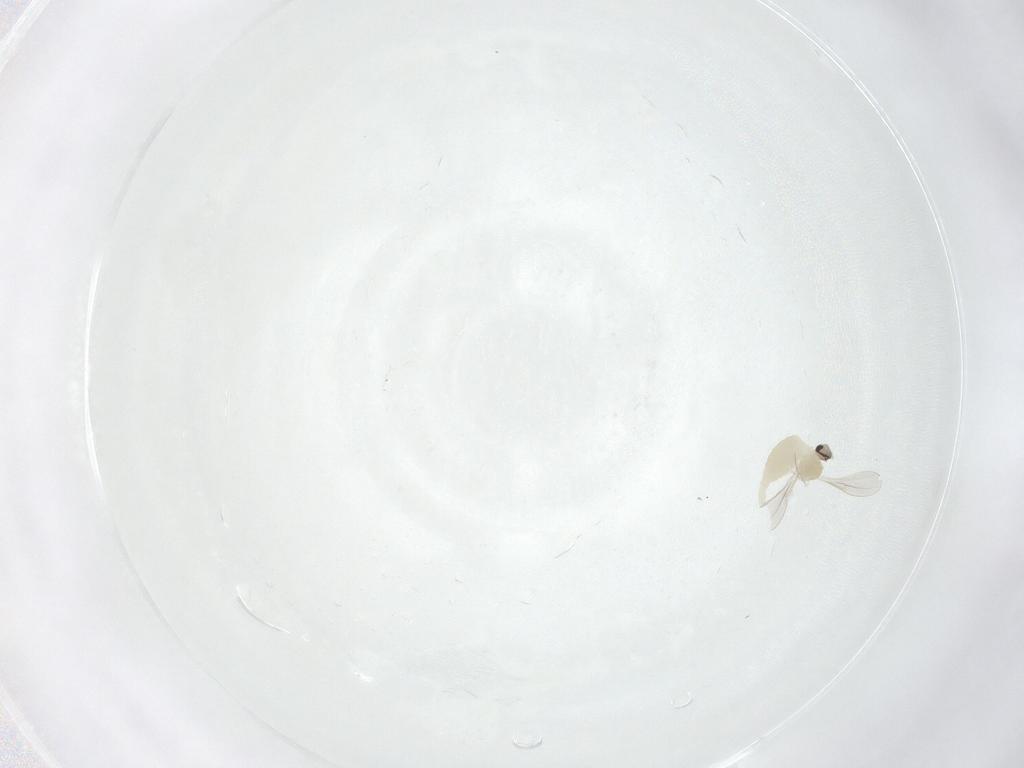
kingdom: Animalia
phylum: Arthropoda
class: Insecta
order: Diptera
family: Cecidomyiidae
